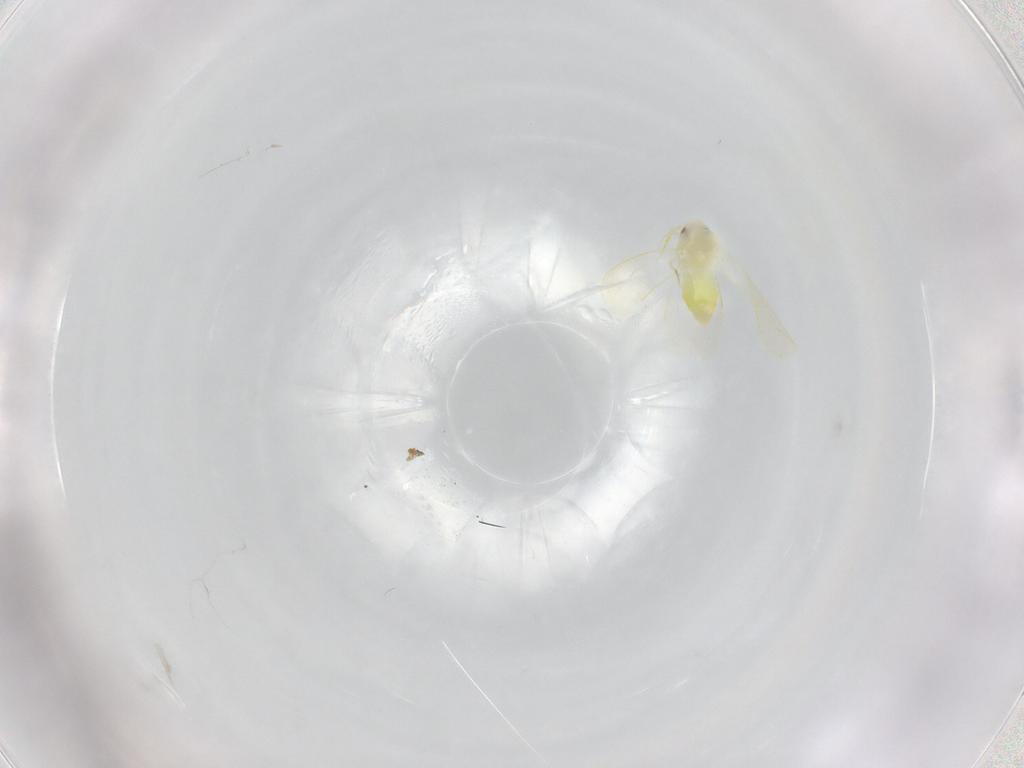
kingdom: Animalia
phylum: Arthropoda
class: Insecta
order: Hemiptera
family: Aleyrodidae
